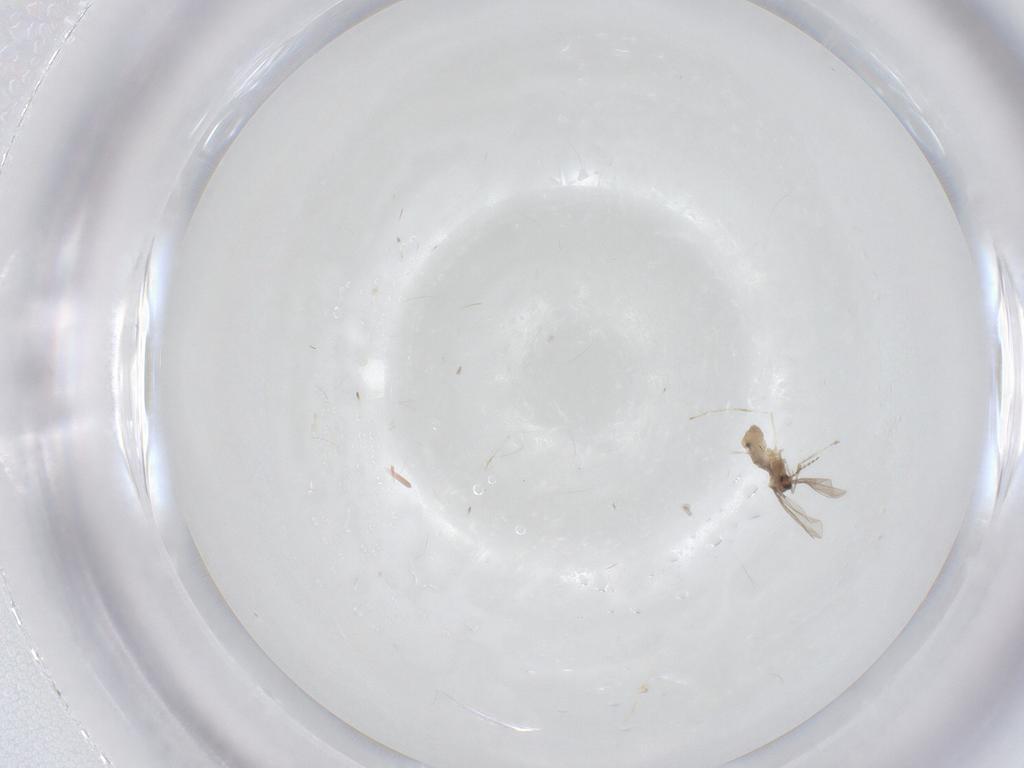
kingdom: Animalia
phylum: Arthropoda
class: Insecta
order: Diptera
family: Cecidomyiidae
